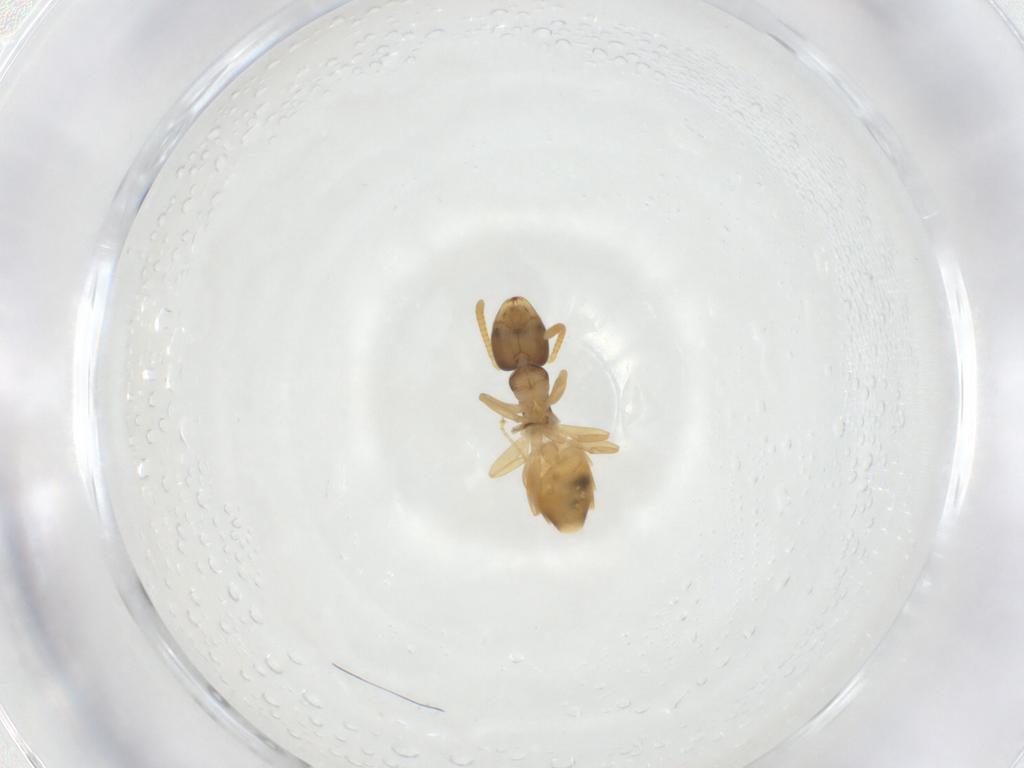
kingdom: Animalia
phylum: Arthropoda
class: Insecta
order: Hymenoptera
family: Formicidae
